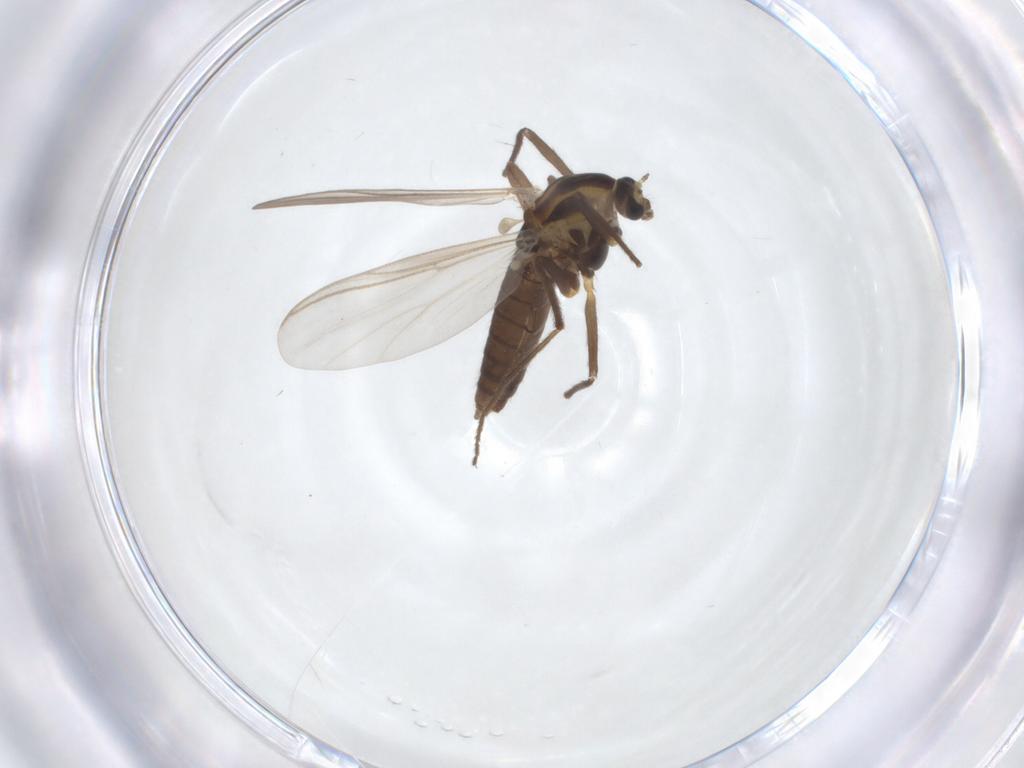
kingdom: Animalia
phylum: Arthropoda
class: Insecta
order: Diptera
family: Chironomidae
